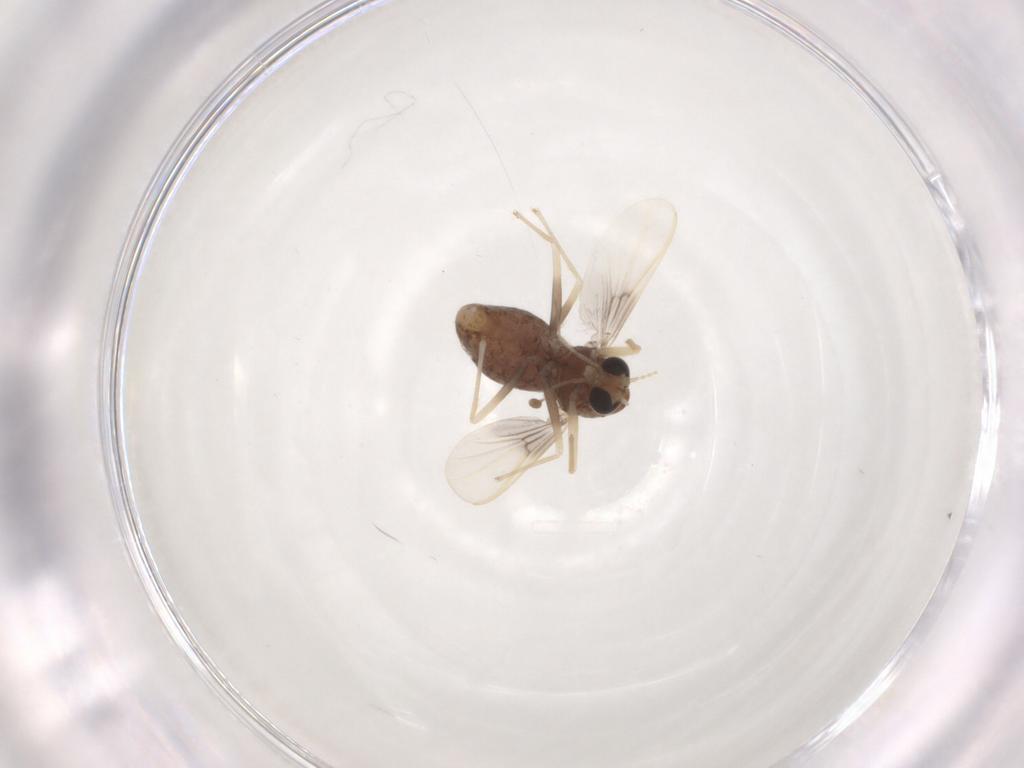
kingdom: Animalia
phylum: Arthropoda
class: Insecta
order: Diptera
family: Chironomidae
